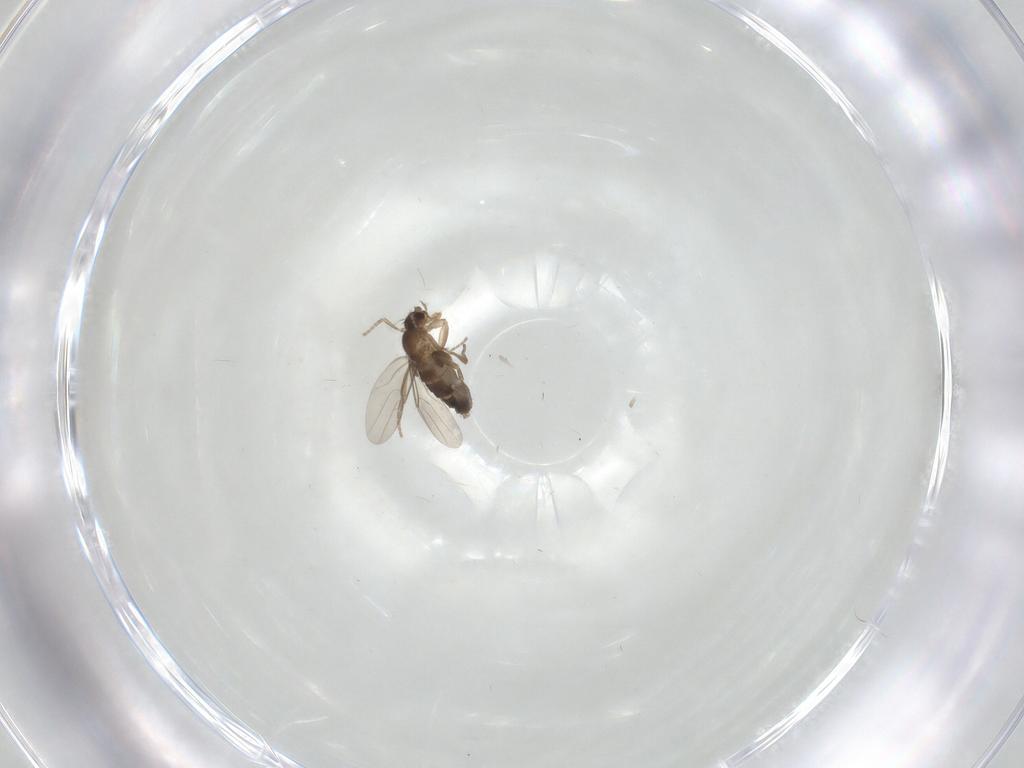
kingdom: Animalia
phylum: Arthropoda
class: Insecta
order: Diptera
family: Phoridae
